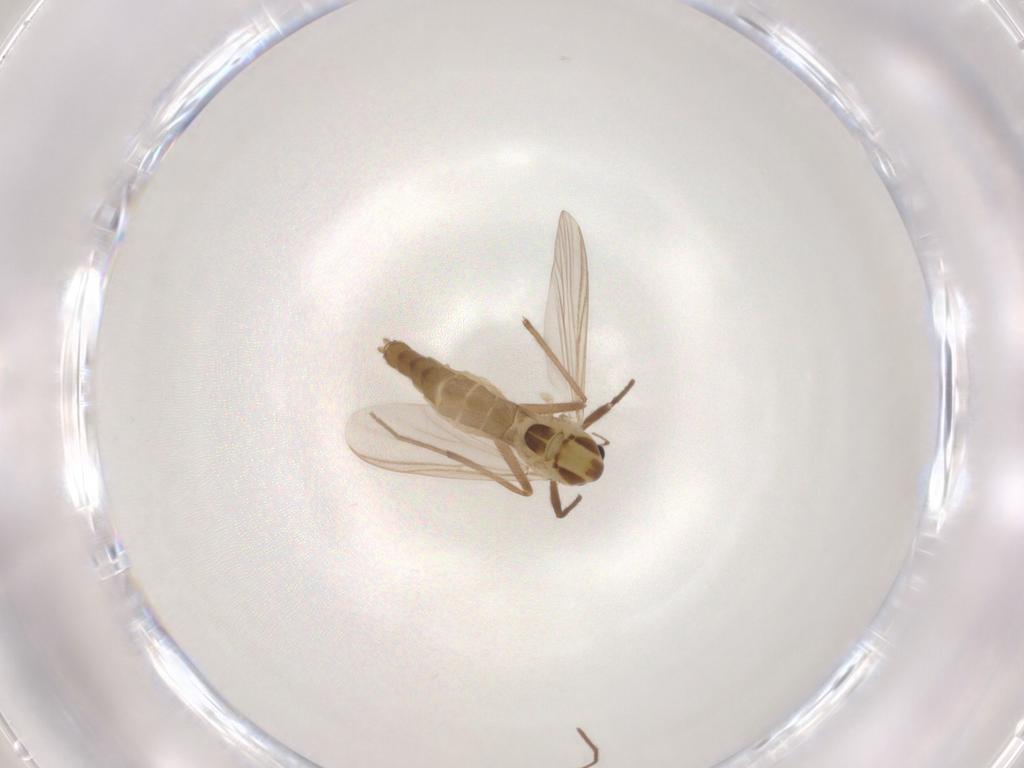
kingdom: Animalia
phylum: Arthropoda
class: Insecta
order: Diptera
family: Chironomidae
